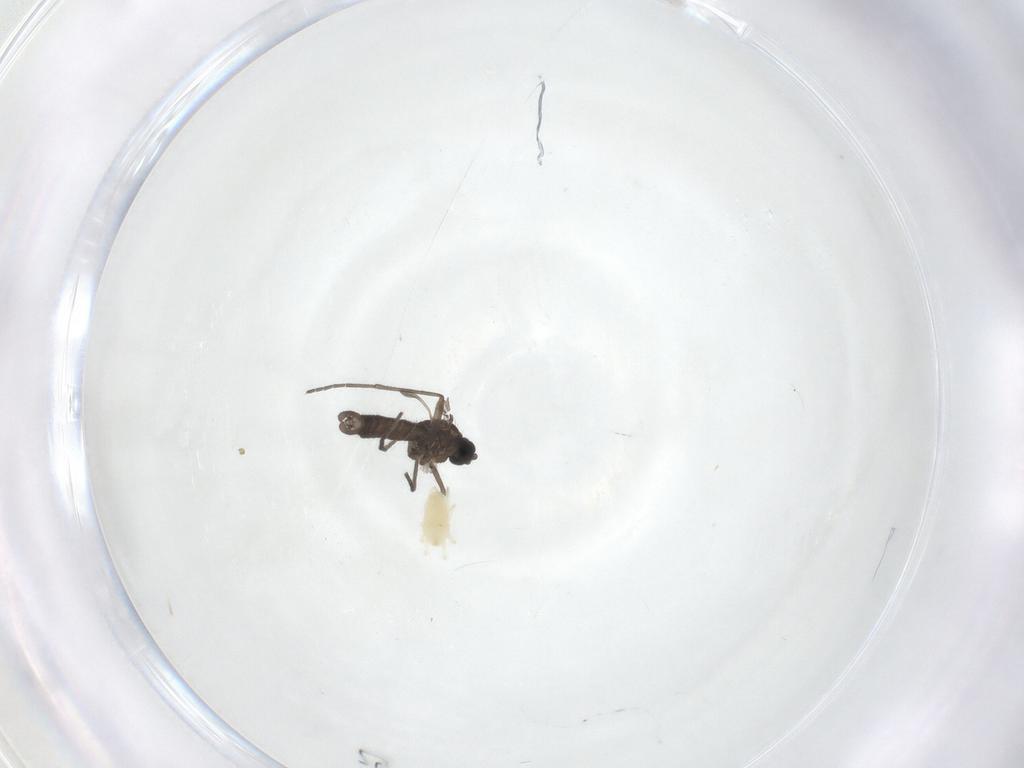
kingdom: Animalia
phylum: Arthropoda
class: Insecta
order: Diptera
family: Sciaridae
